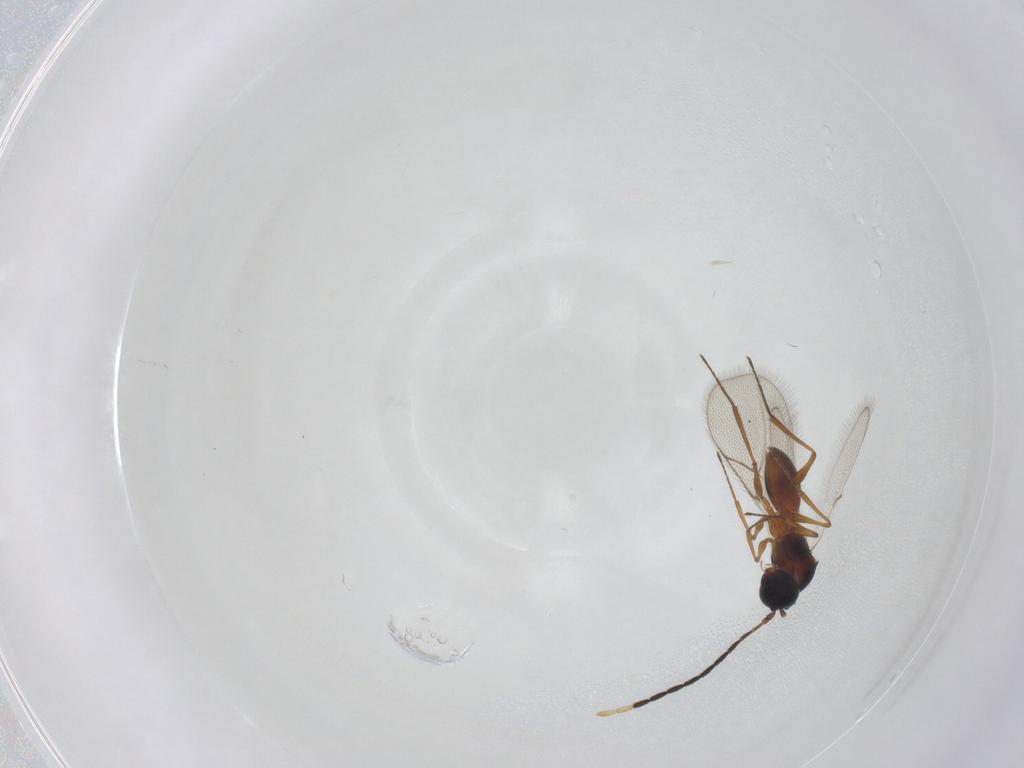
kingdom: Animalia
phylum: Arthropoda
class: Insecta
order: Hymenoptera
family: Figitidae
